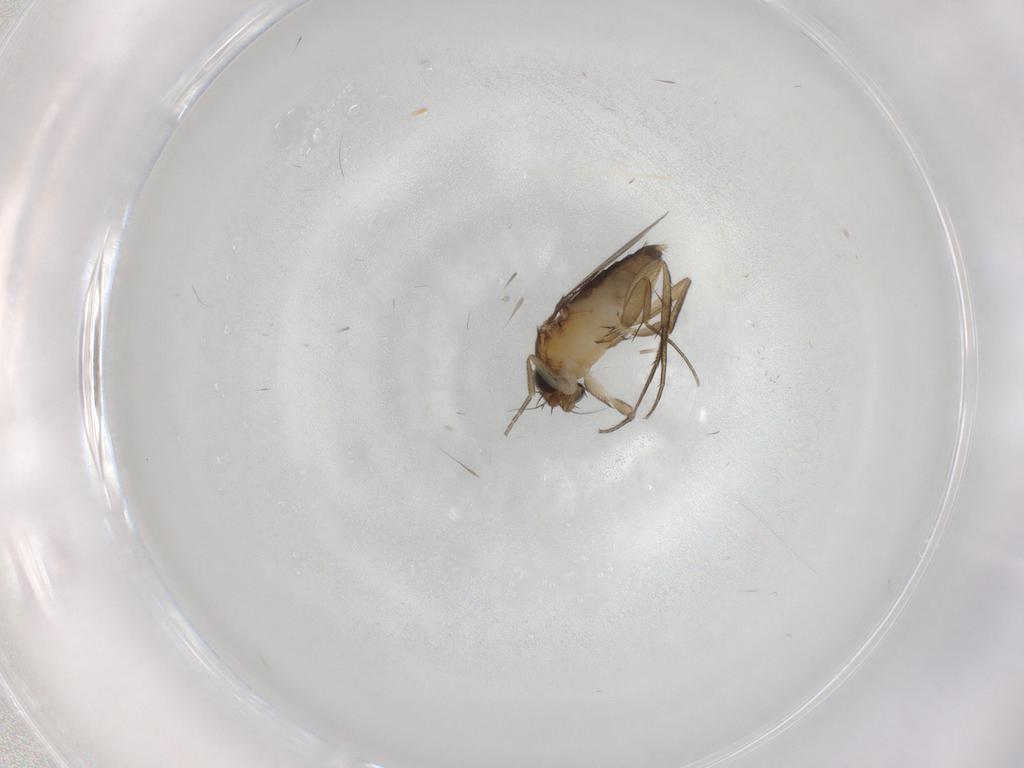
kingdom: Animalia
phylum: Arthropoda
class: Insecta
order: Diptera
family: Phoridae
